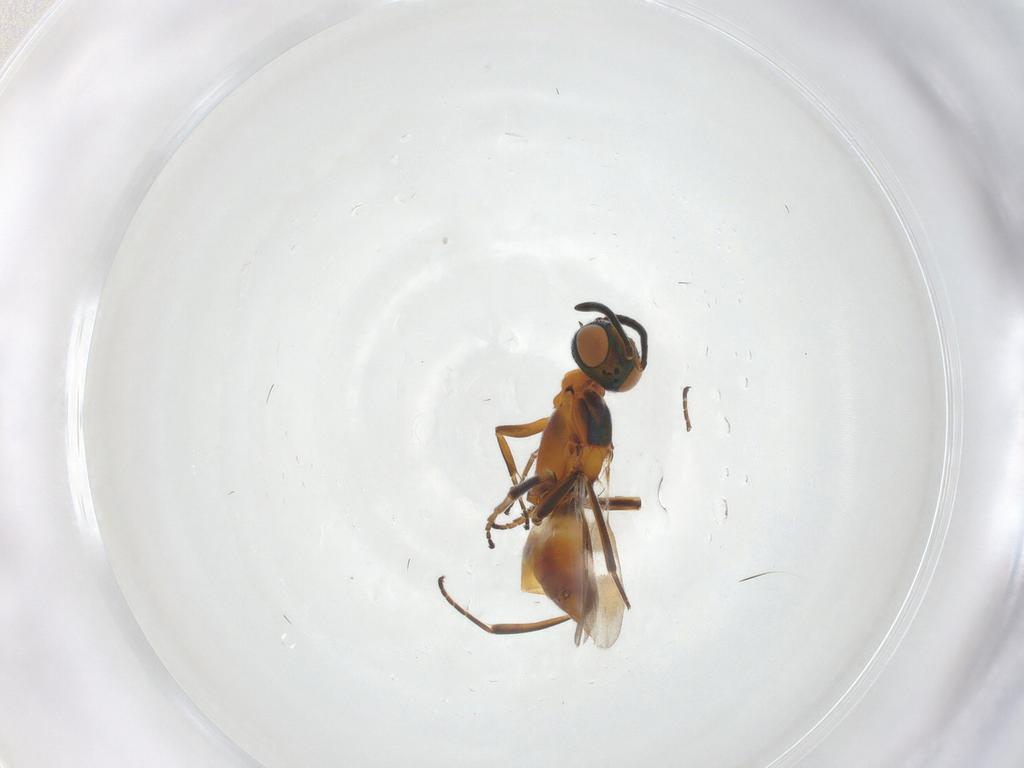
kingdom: Animalia
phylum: Arthropoda
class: Insecta
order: Hymenoptera
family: Eupelmidae
